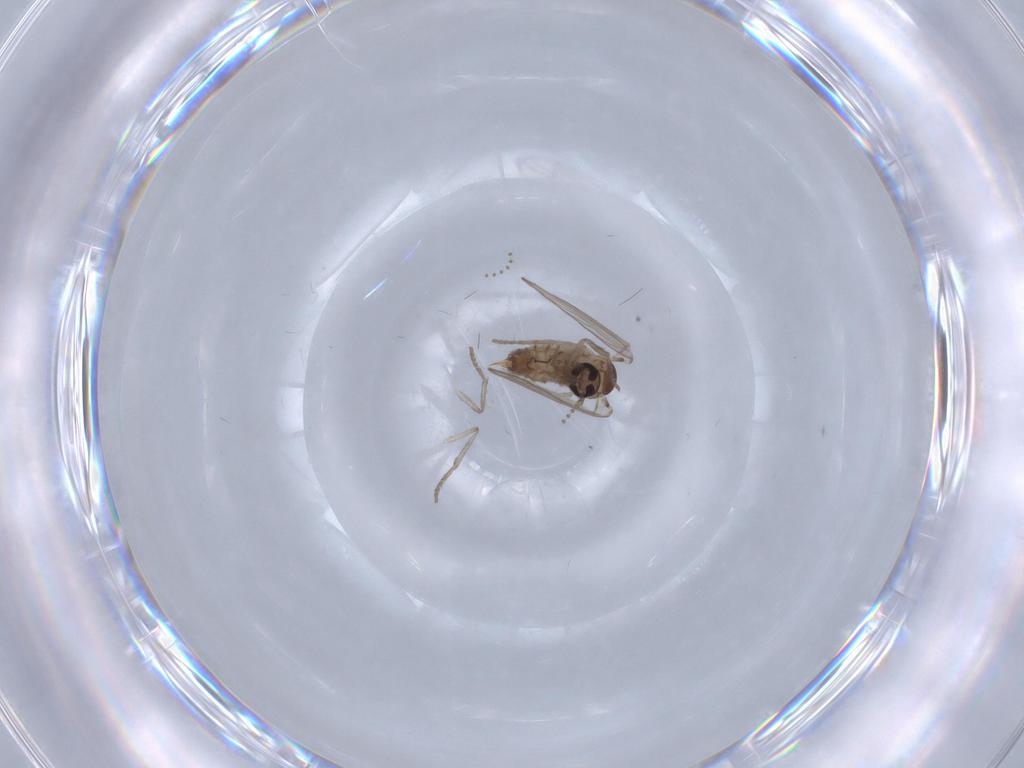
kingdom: Animalia
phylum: Arthropoda
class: Insecta
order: Diptera
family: Psychodidae
